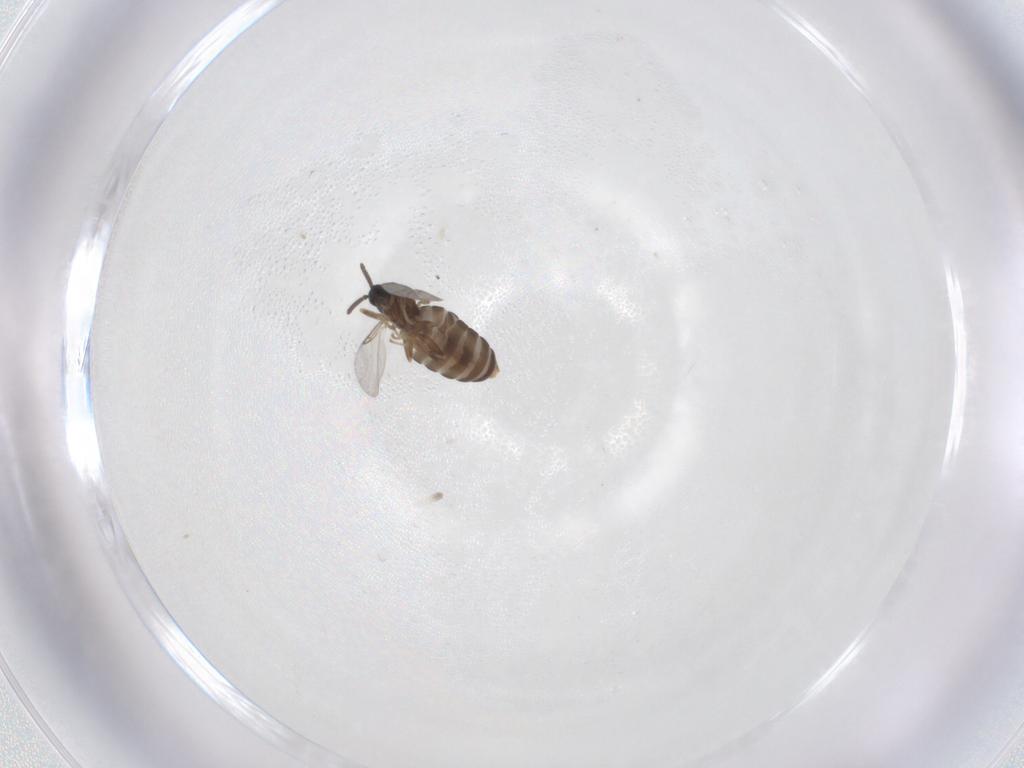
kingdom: Animalia
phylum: Arthropoda
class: Insecta
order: Diptera
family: Scatopsidae
